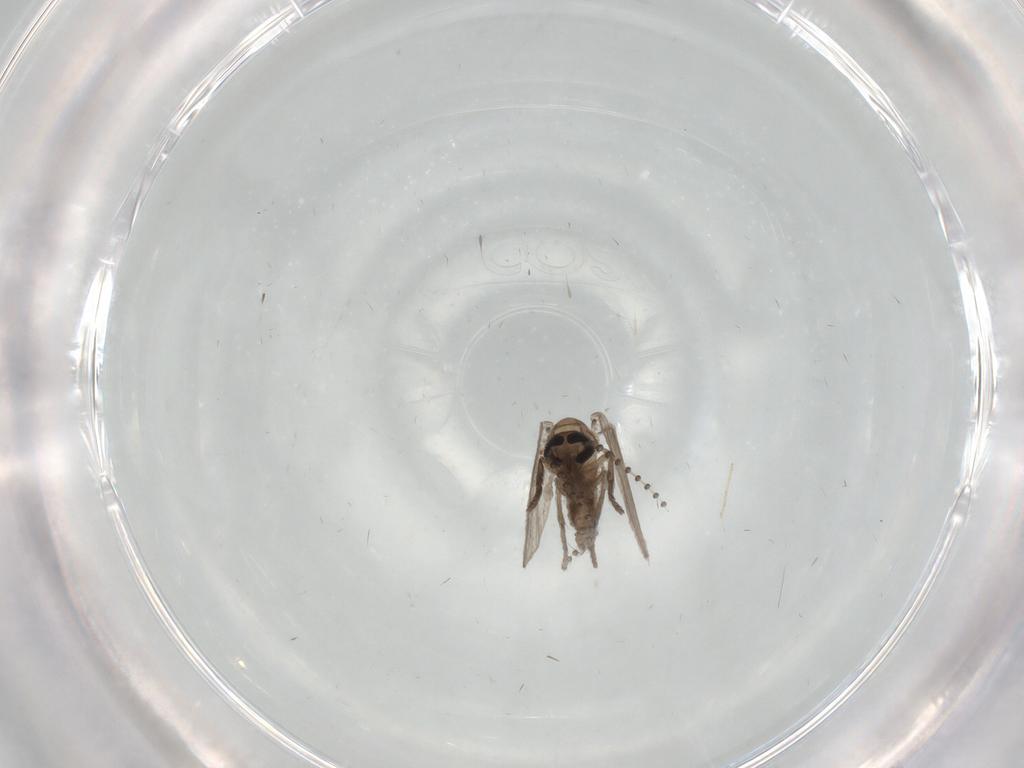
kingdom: Animalia
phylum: Arthropoda
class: Insecta
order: Diptera
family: Psychodidae
